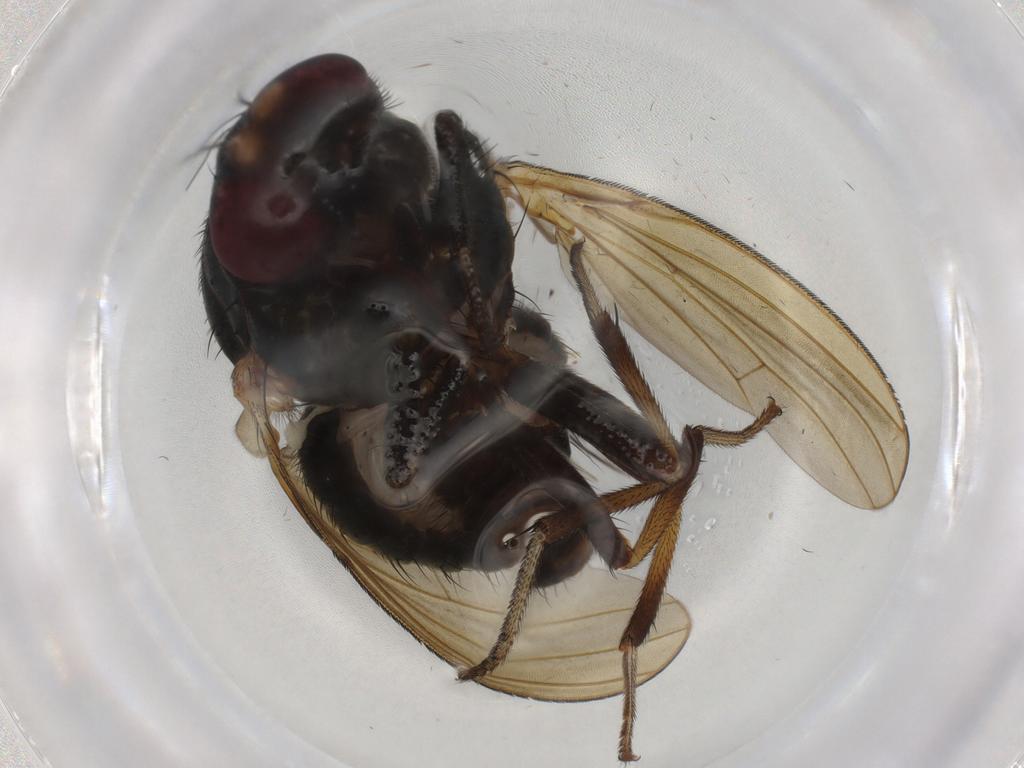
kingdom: Animalia
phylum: Arthropoda
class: Insecta
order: Diptera
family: Lauxaniidae
